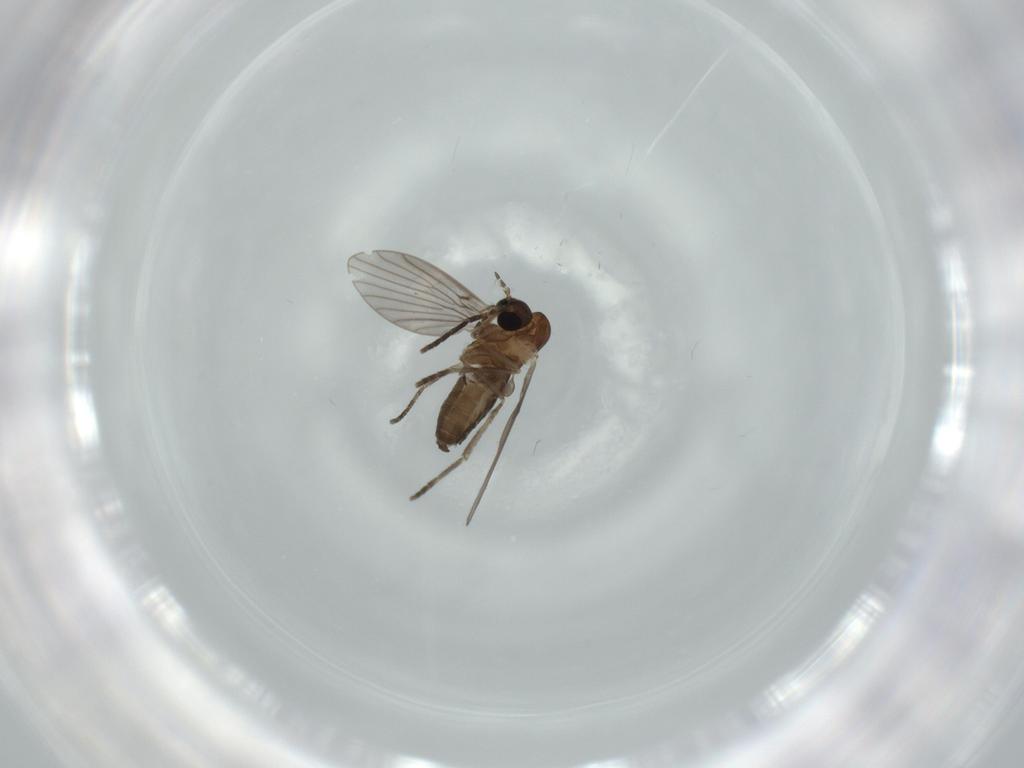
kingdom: Animalia
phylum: Arthropoda
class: Insecta
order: Diptera
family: Psychodidae
